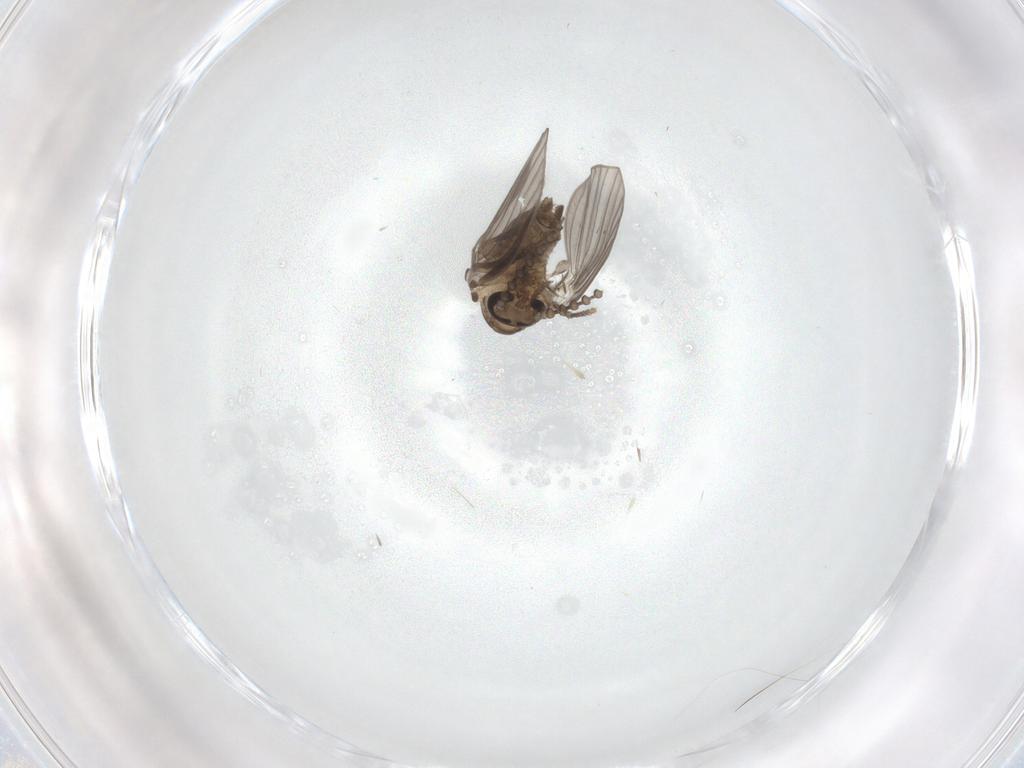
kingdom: Animalia
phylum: Arthropoda
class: Insecta
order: Diptera
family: Psychodidae
